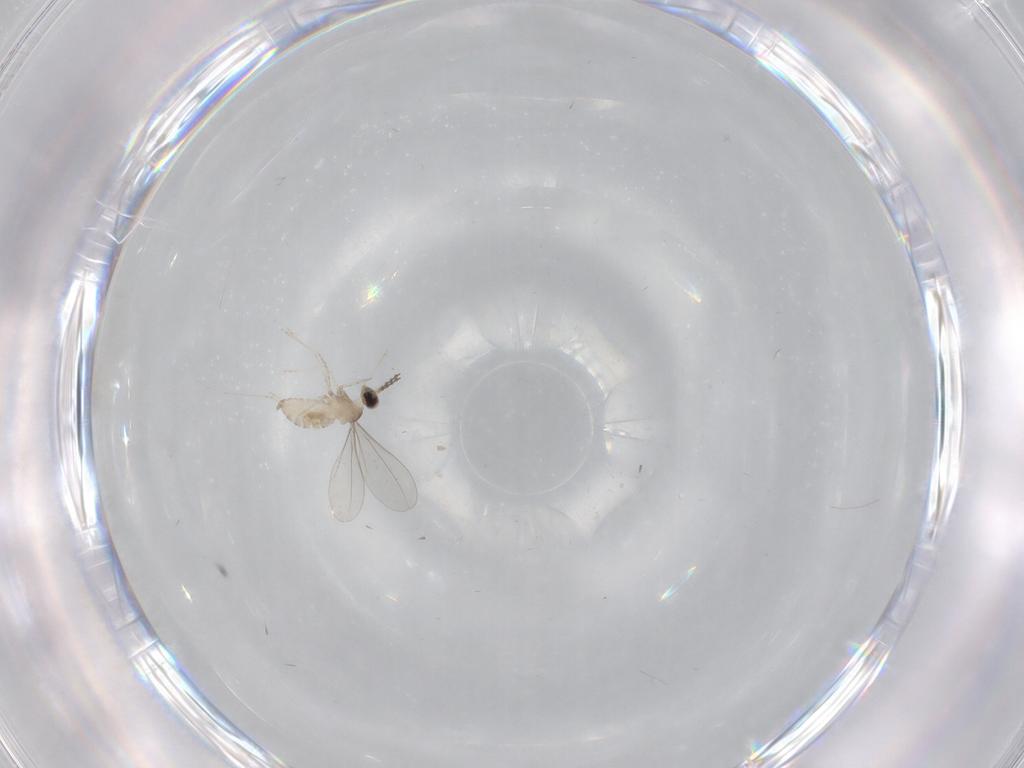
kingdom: Animalia
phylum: Arthropoda
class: Insecta
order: Diptera
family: Cecidomyiidae
